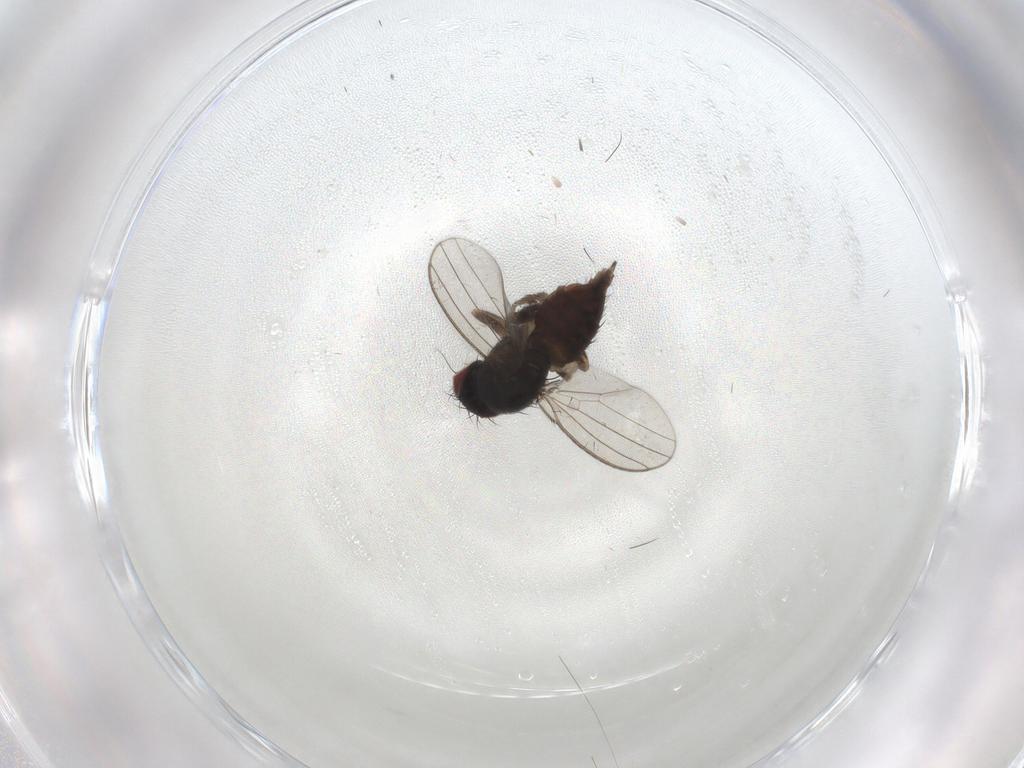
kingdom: Animalia
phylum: Arthropoda
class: Insecta
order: Diptera
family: Milichiidae
